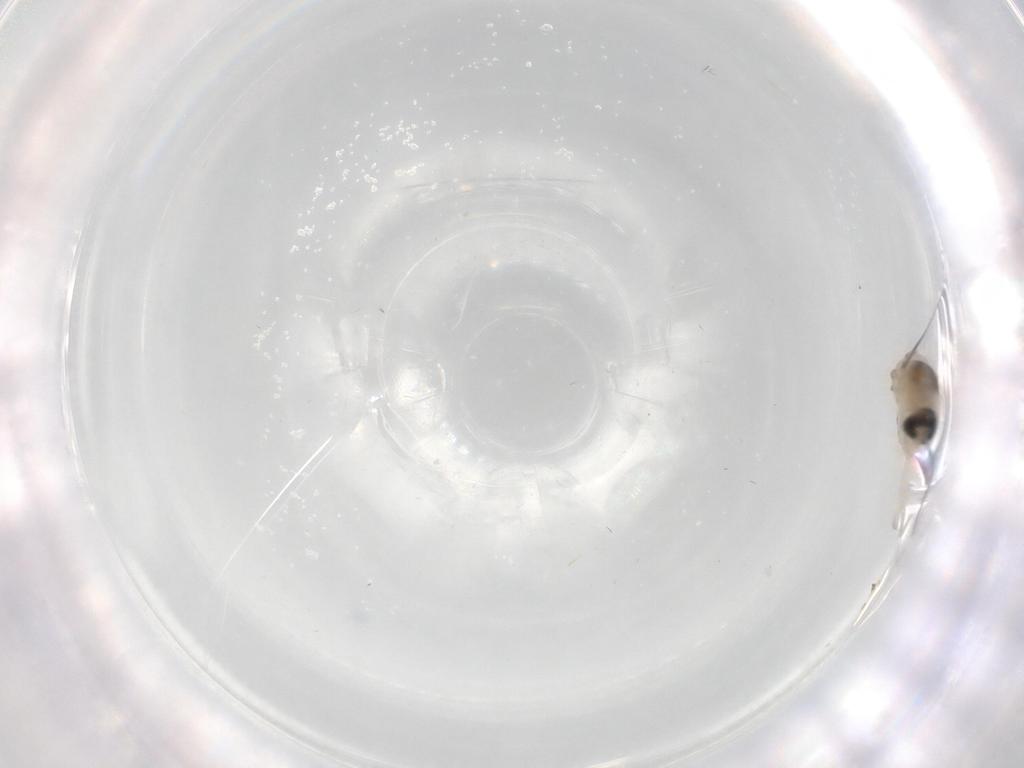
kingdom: Animalia
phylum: Arthropoda
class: Insecta
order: Diptera
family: Cecidomyiidae
